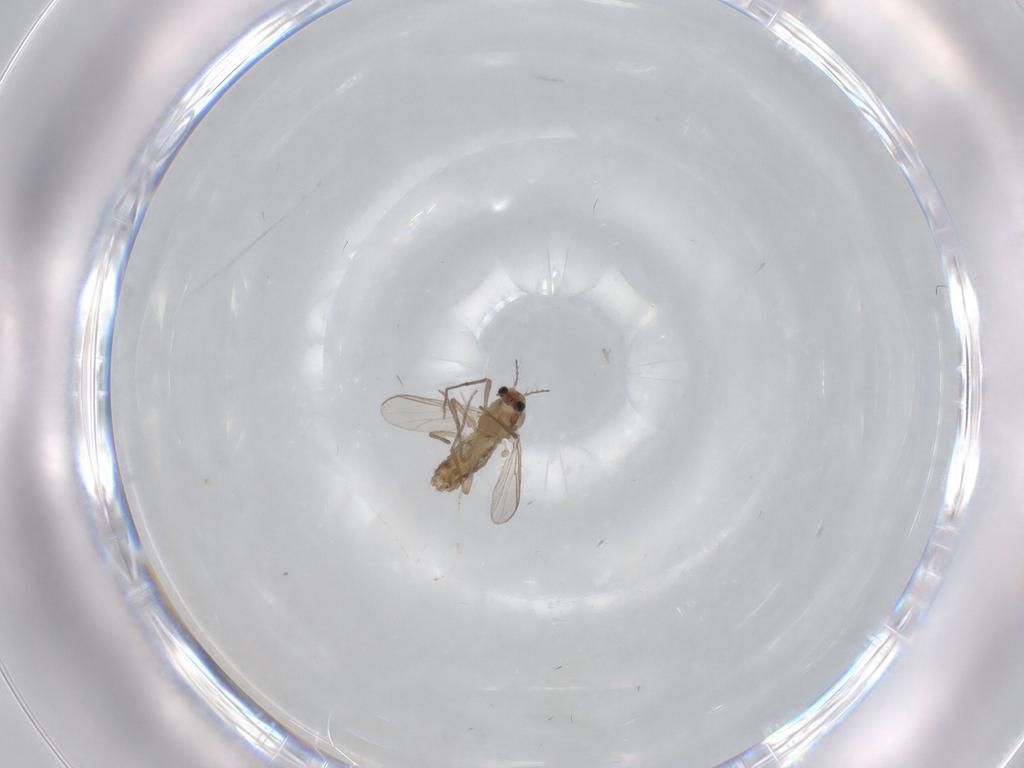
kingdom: Animalia
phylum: Arthropoda
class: Insecta
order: Diptera
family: Chironomidae
